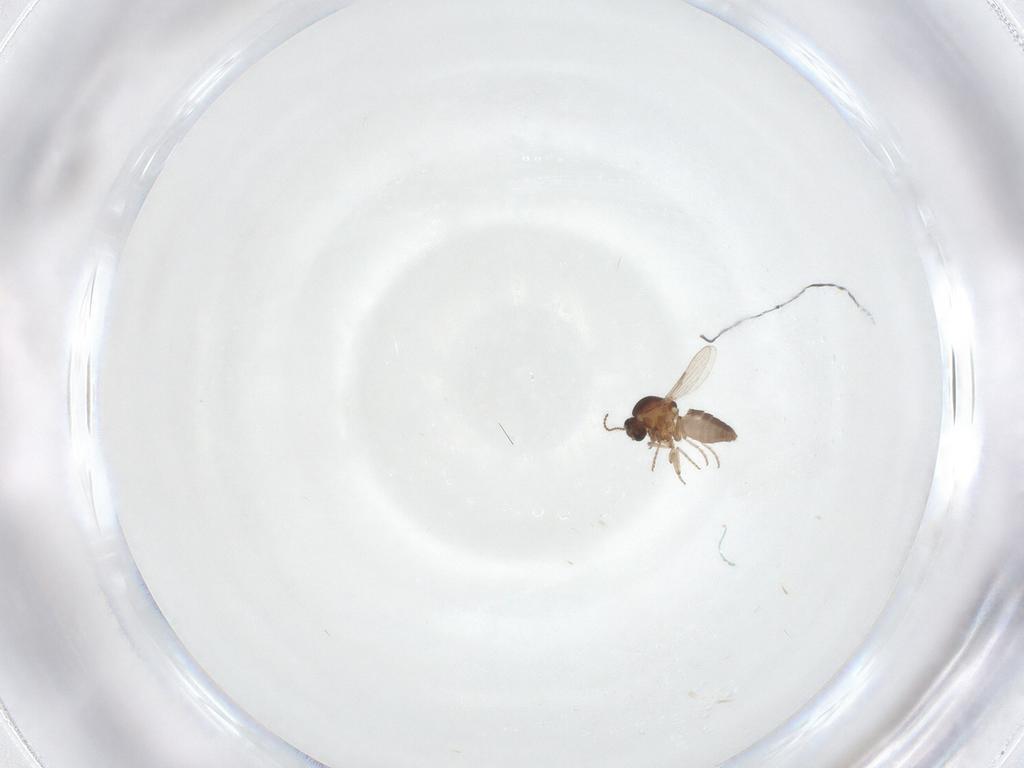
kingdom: Animalia
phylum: Arthropoda
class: Insecta
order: Diptera
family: Ceratopogonidae
